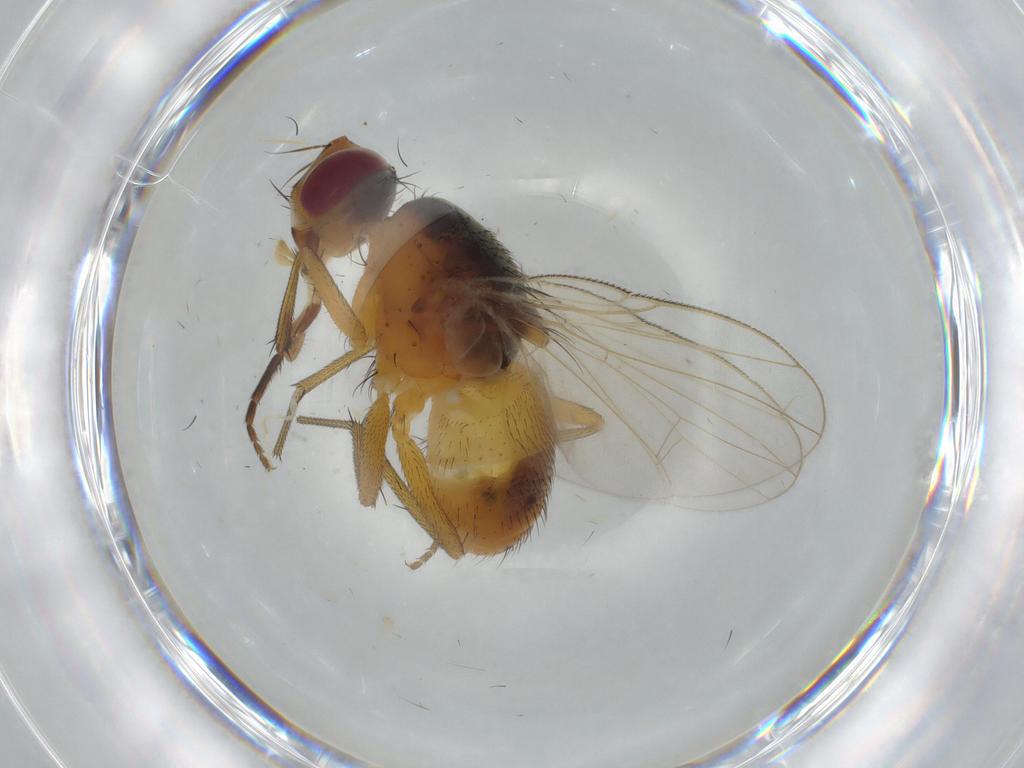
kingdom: Animalia
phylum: Arthropoda
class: Insecta
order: Diptera
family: Muscidae
